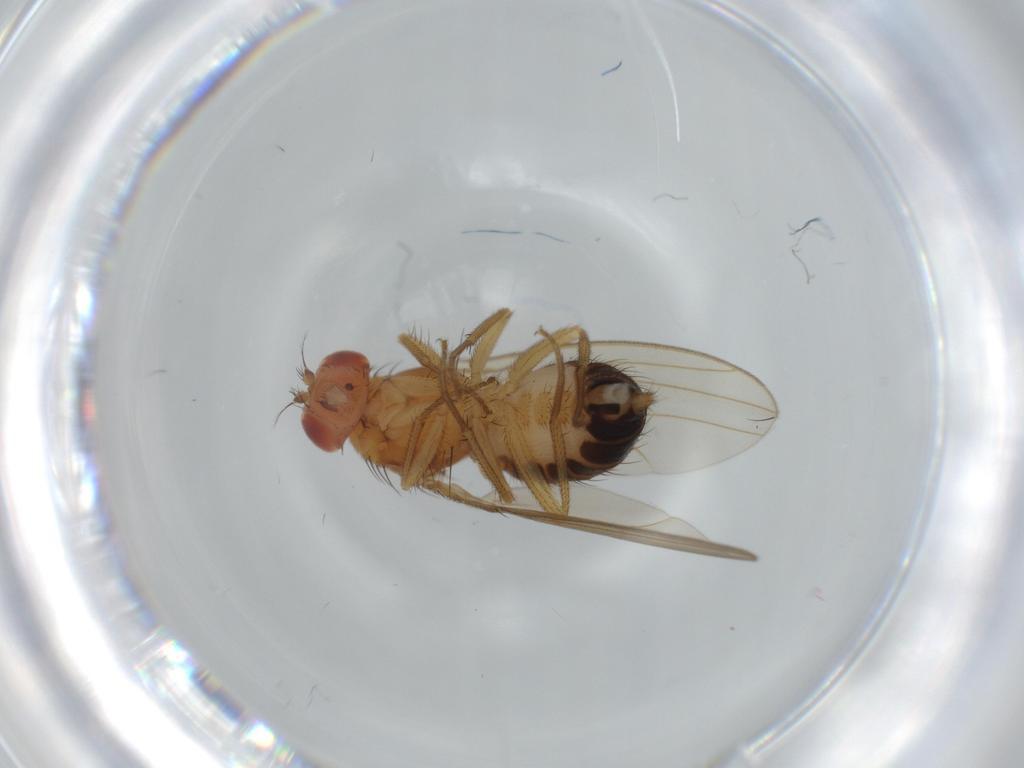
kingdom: Animalia
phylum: Arthropoda
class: Insecta
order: Diptera
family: Drosophilidae
